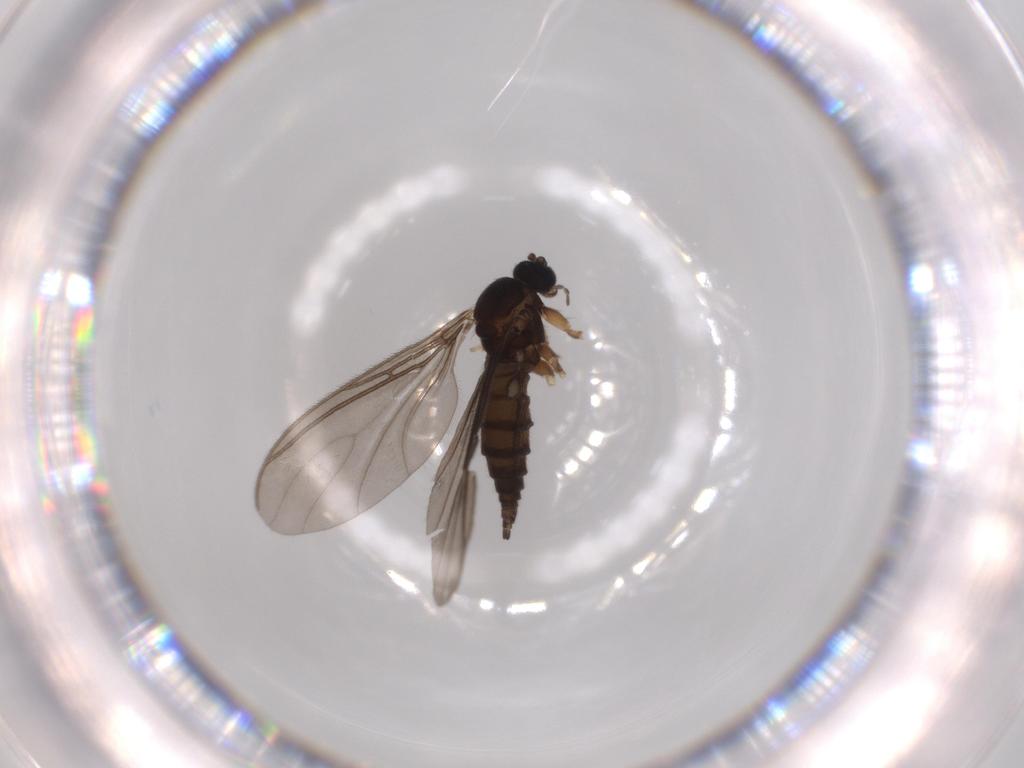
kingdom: Animalia
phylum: Arthropoda
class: Insecta
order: Diptera
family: Sciaridae
